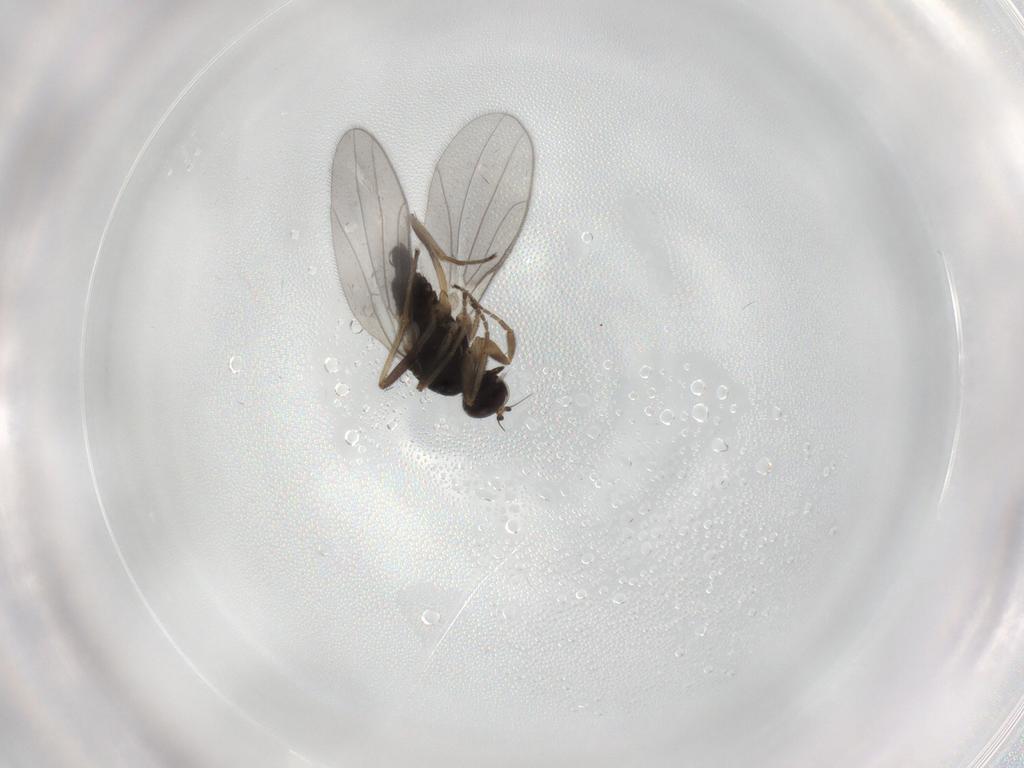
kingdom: Animalia
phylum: Arthropoda
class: Insecta
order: Diptera
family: Hybotidae
